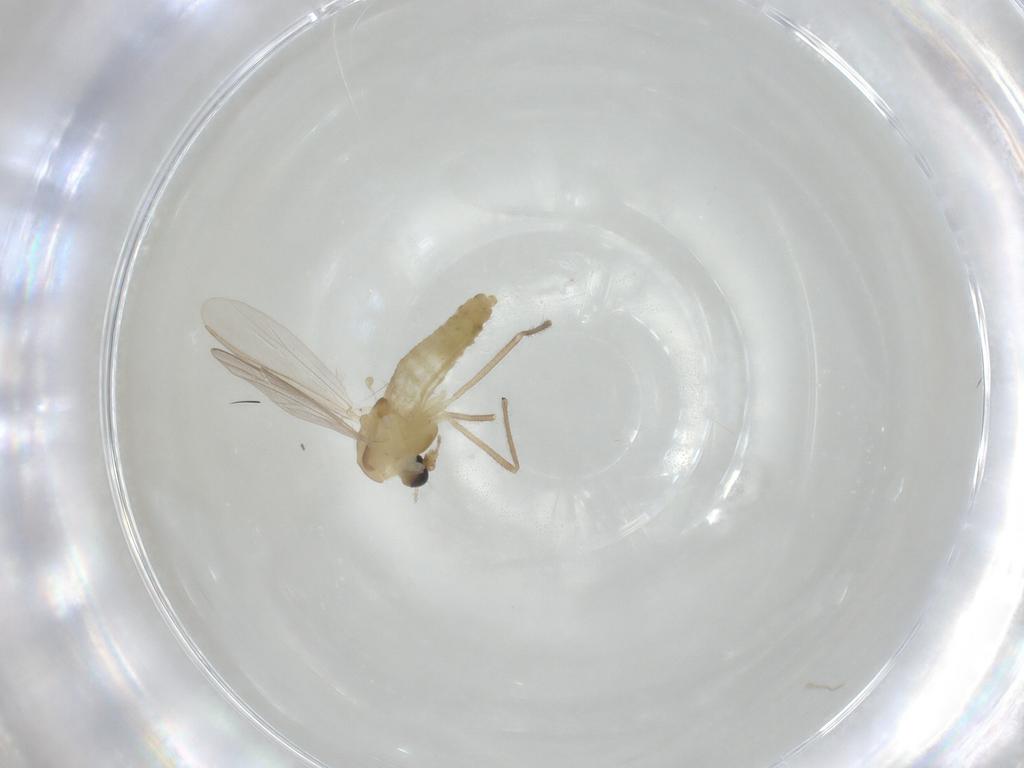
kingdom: Animalia
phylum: Arthropoda
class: Insecta
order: Diptera
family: Chironomidae
